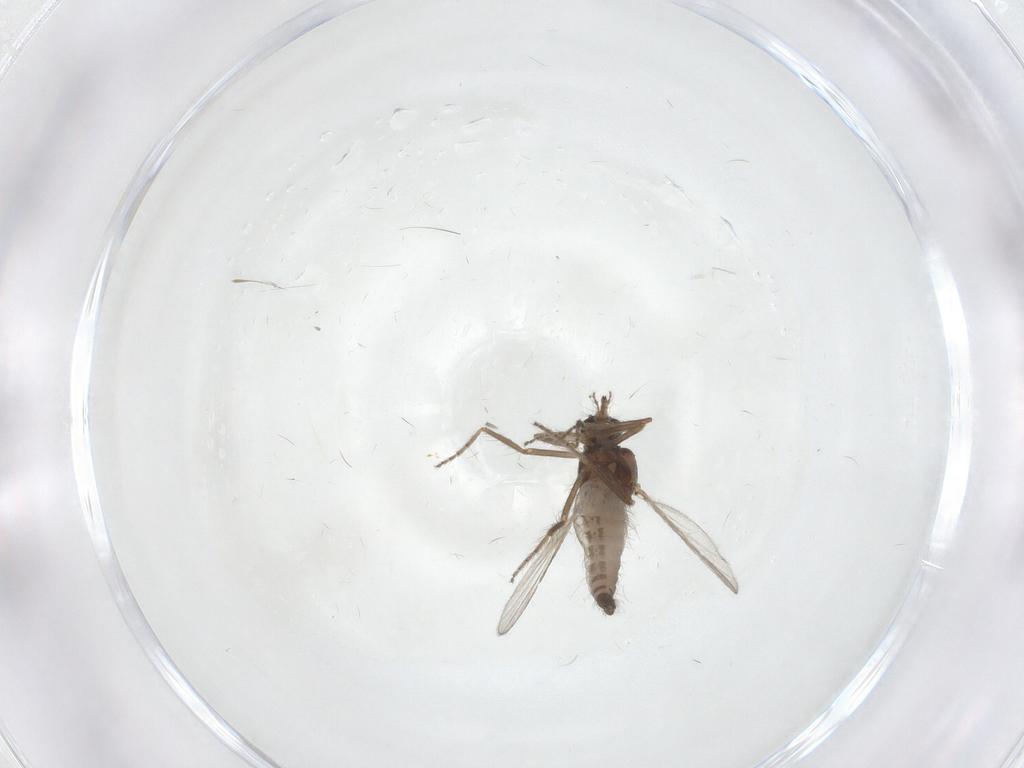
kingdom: Animalia
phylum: Arthropoda
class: Insecta
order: Diptera
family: Ceratopogonidae
